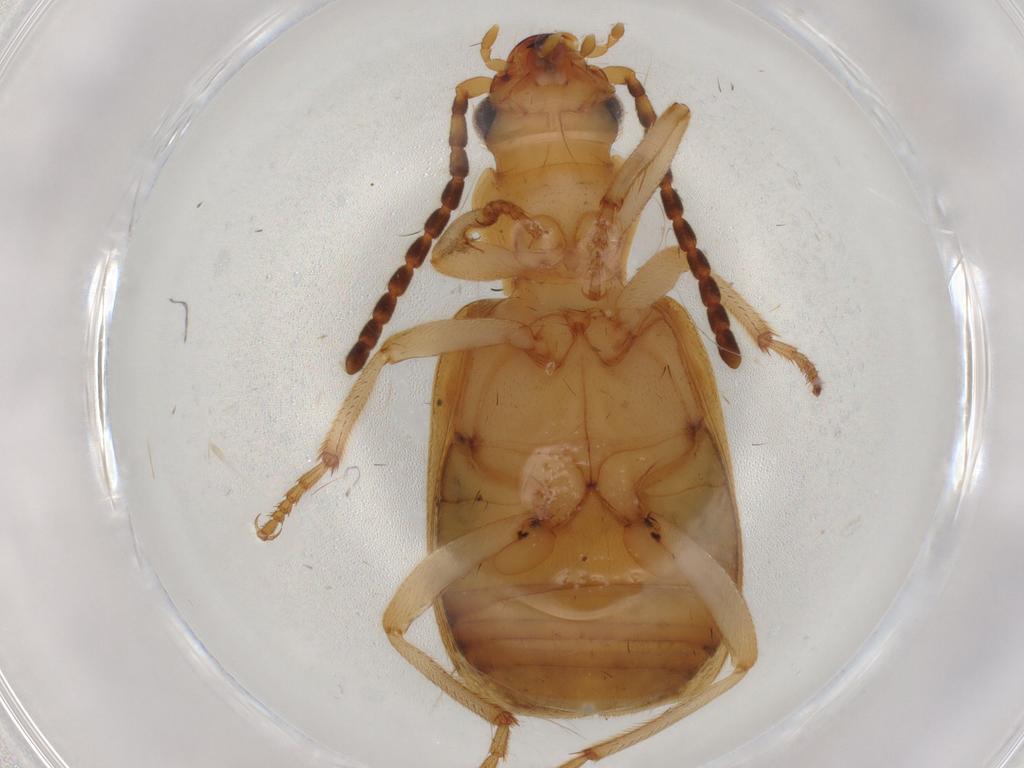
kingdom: Animalia
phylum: Arthropoda
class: Insecta
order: Coleoptera
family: Carabidae
